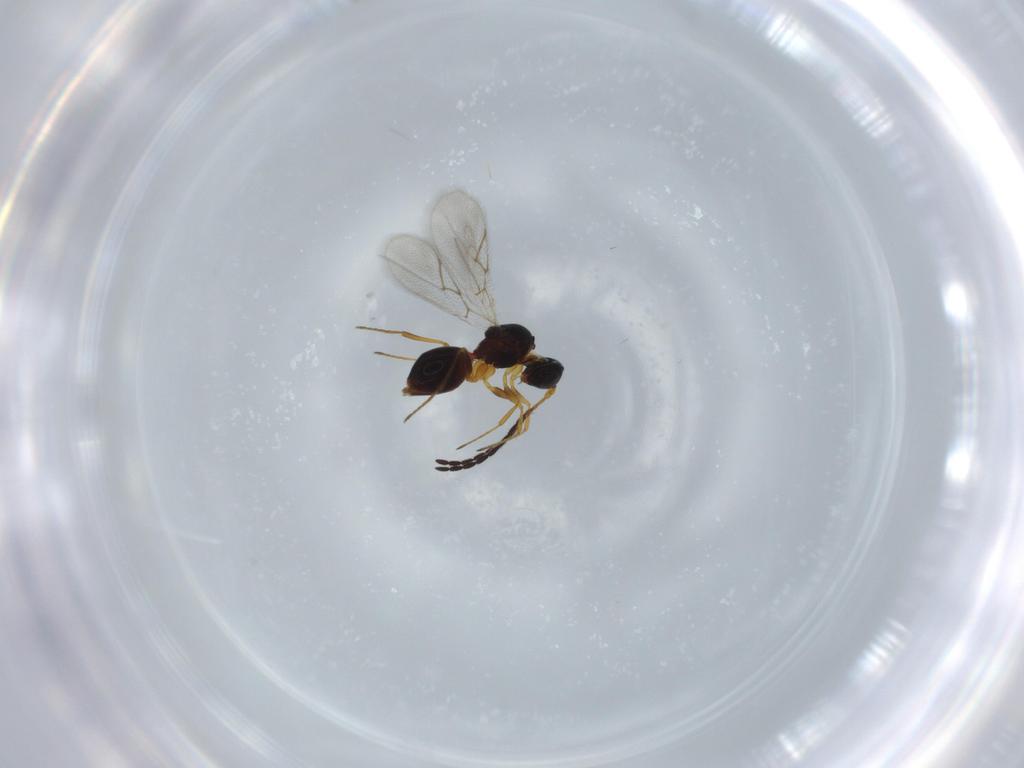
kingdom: Animalia
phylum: Arthropoda
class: Insecta
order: Hymenoptera
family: Figitidae
